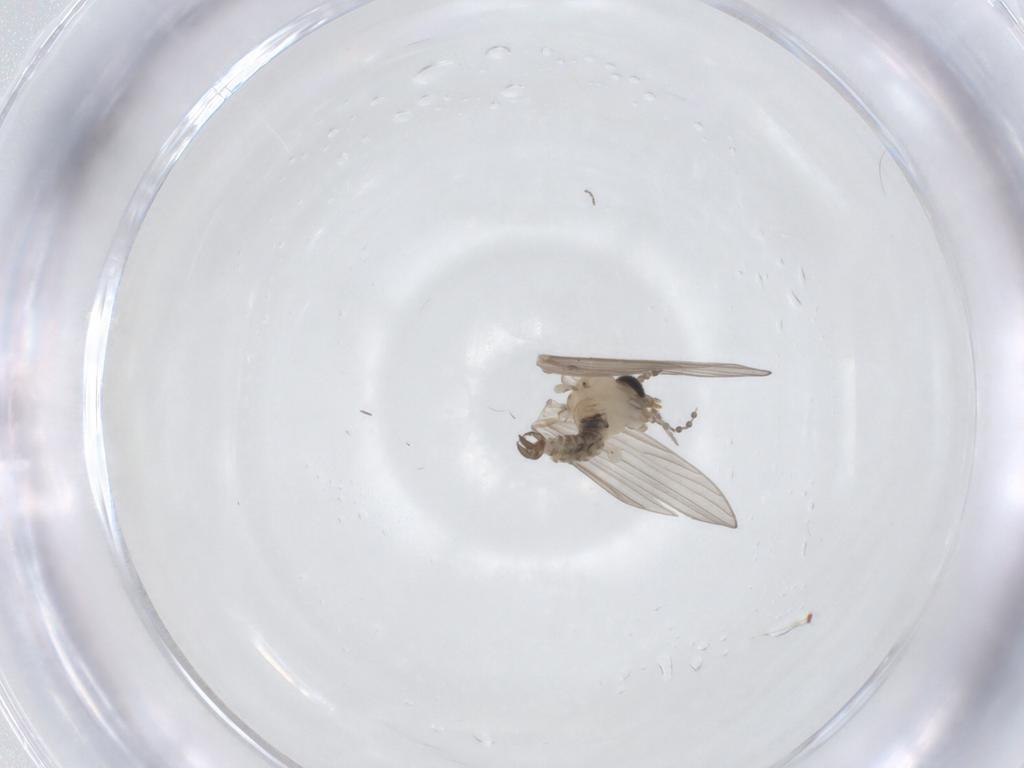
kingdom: Animalia
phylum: Arthropoda
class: Insecta
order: Diptera
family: Psychodidae
